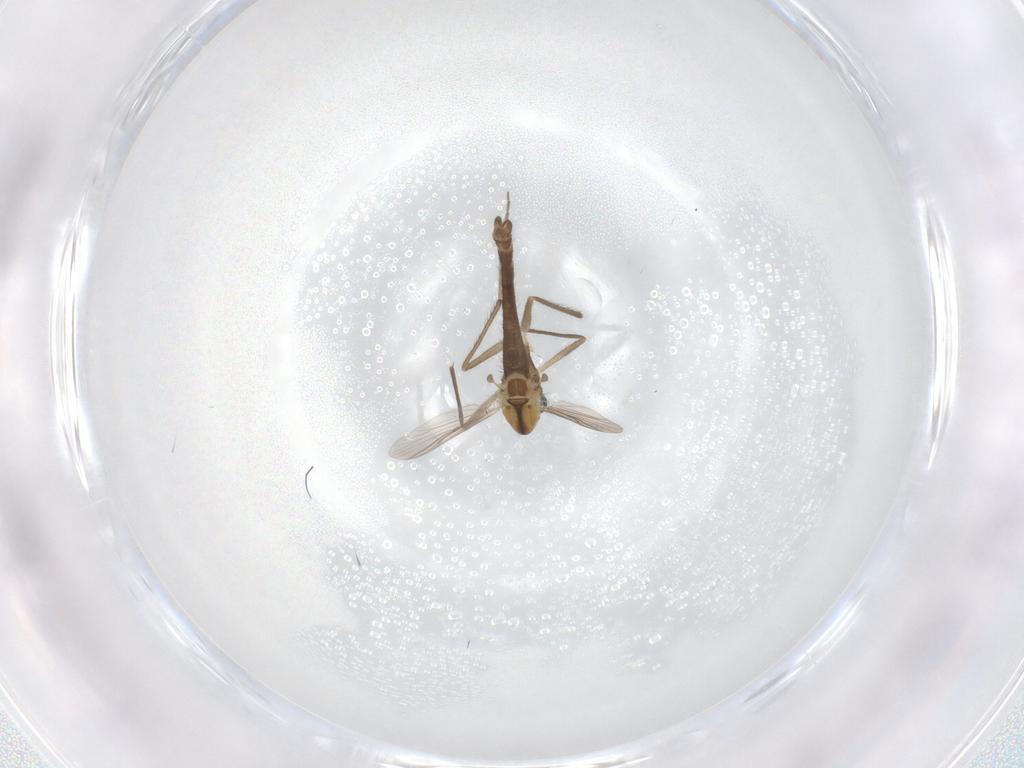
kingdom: Animalia
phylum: Arthropoda
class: Insecta
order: Diptera
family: Chironomidae
